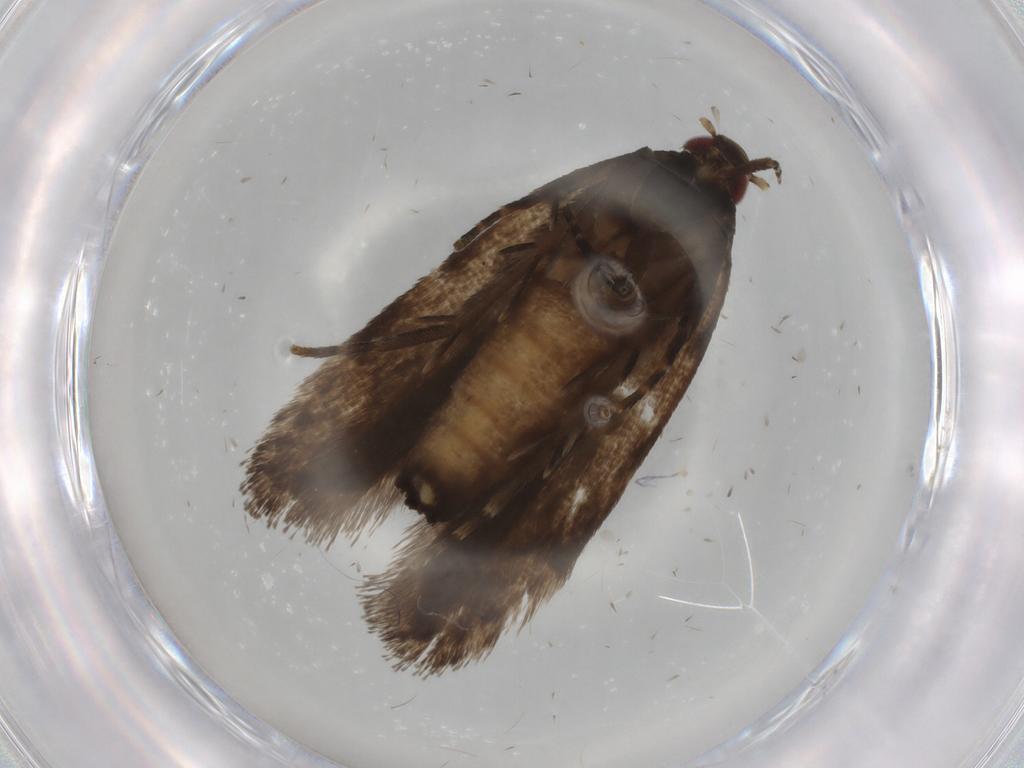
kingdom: Animalia
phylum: Arthropoda
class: Insecta
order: Lepidoptera
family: Gelechiidae
